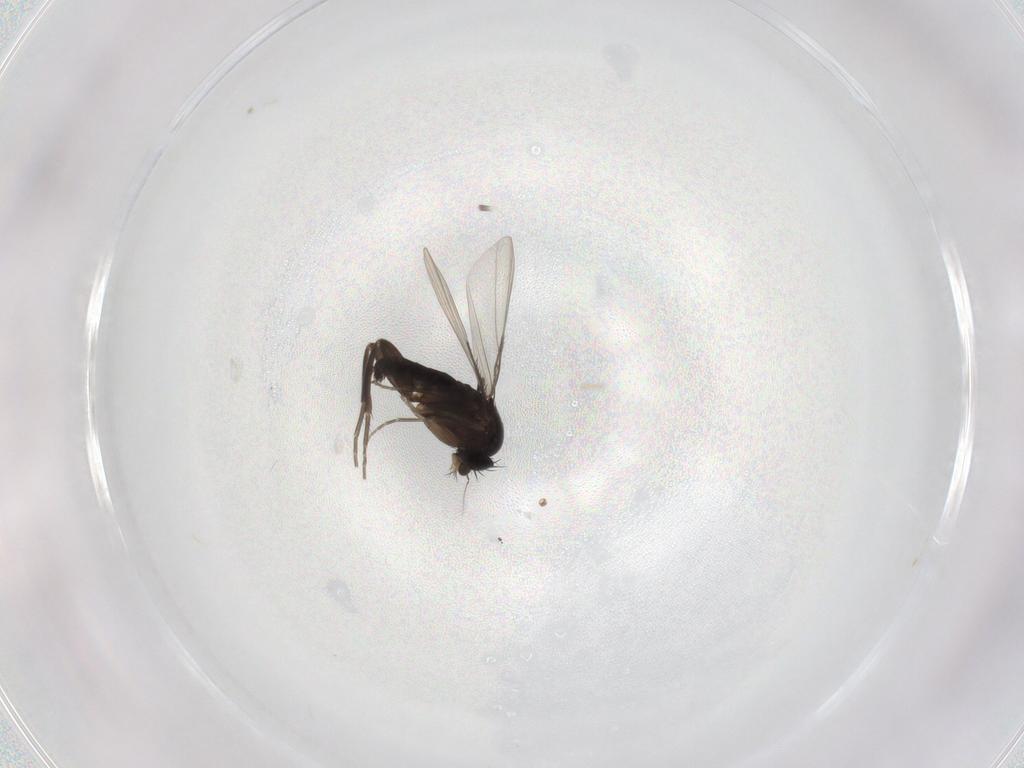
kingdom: Animalia
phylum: Arthropoda
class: Insecta
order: Diptera
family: Phoridae
